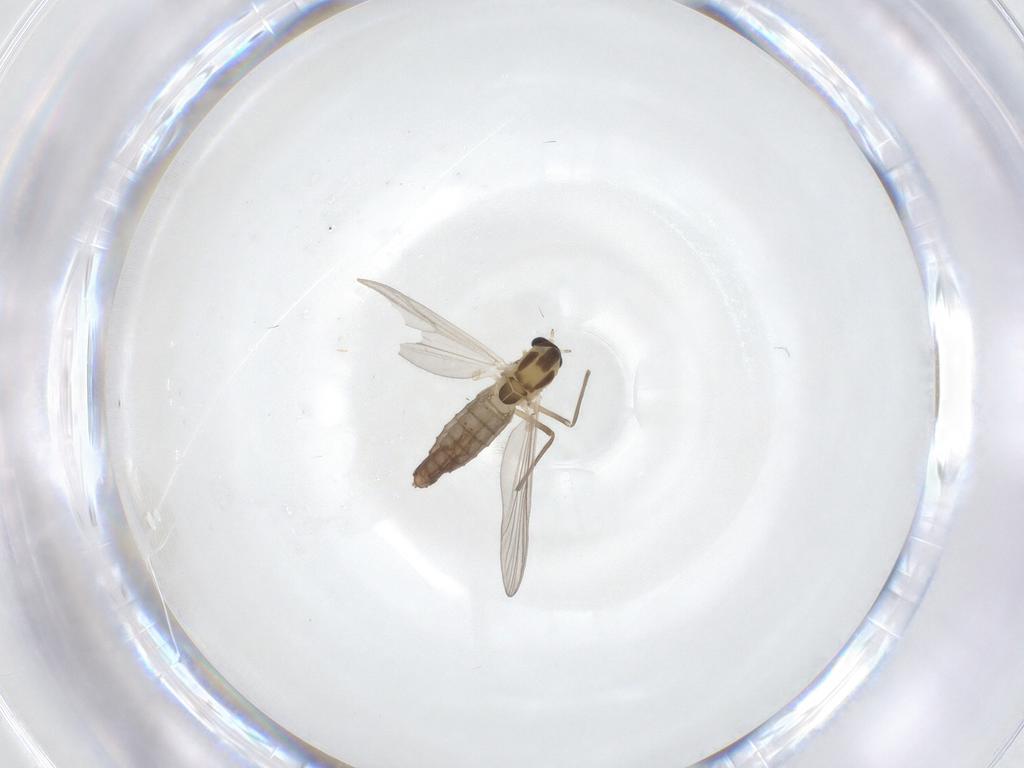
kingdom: Animalia
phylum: Arthropoda
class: Insecta
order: Diptera
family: Chironomidae
